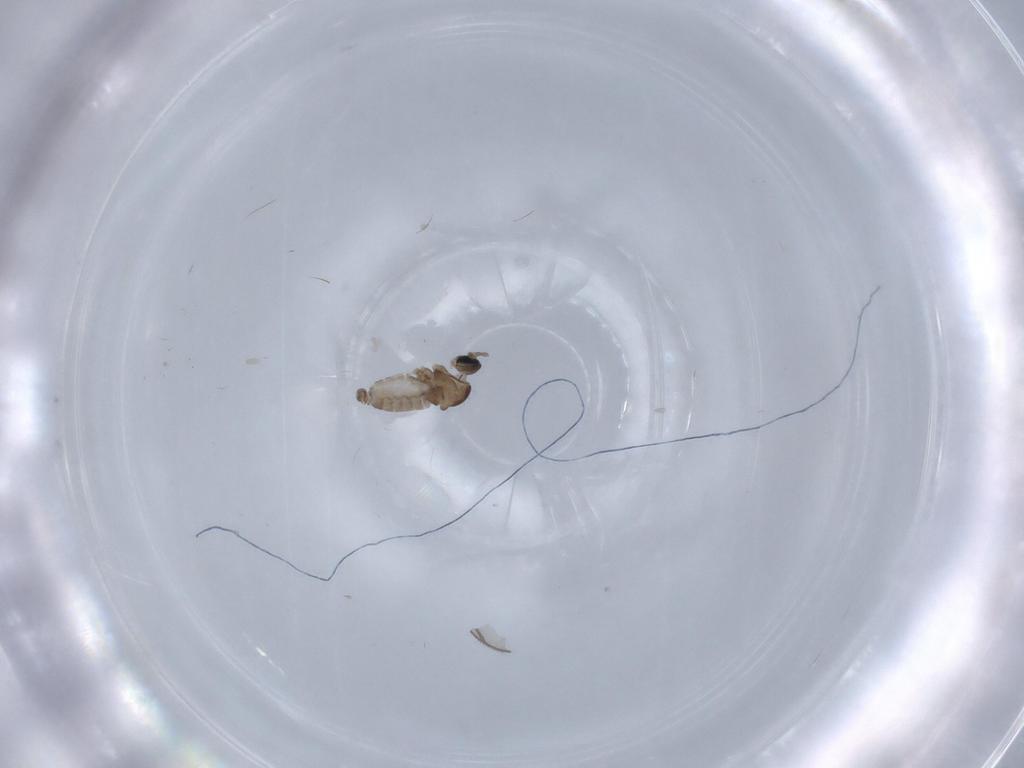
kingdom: Animalia
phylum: Arthropoda
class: Insecta
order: Diptera
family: Cecidomyiidae
